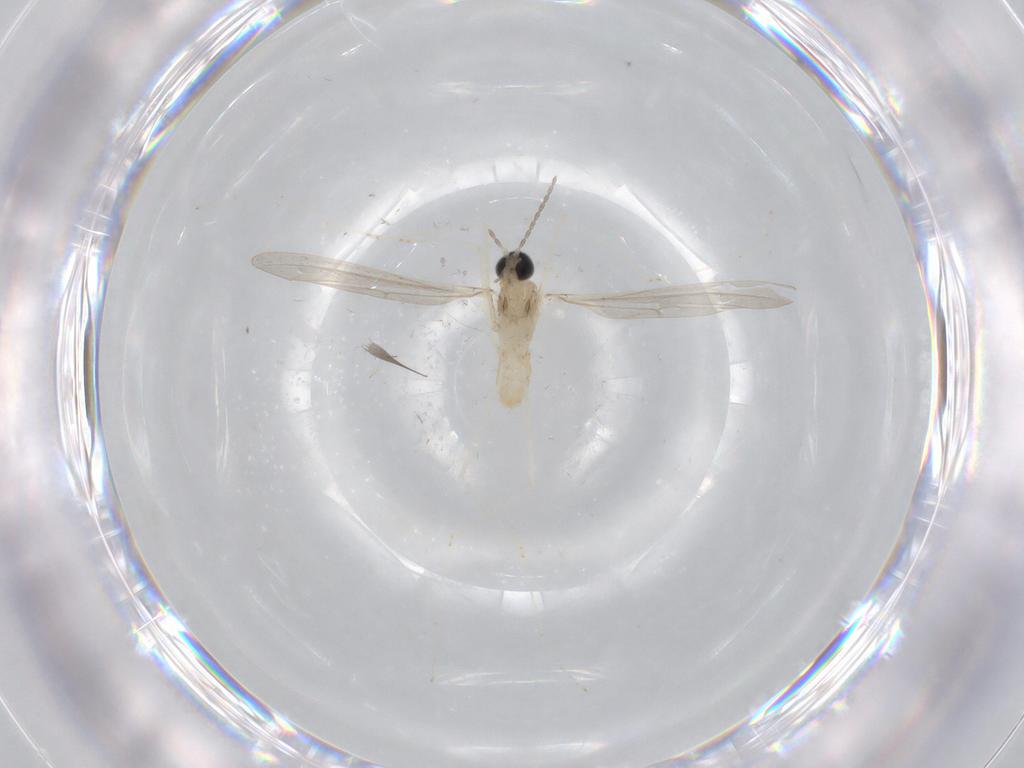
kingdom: Animalia
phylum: Arthropoda
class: Insecta
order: Diptera
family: Cecidomyiidae
